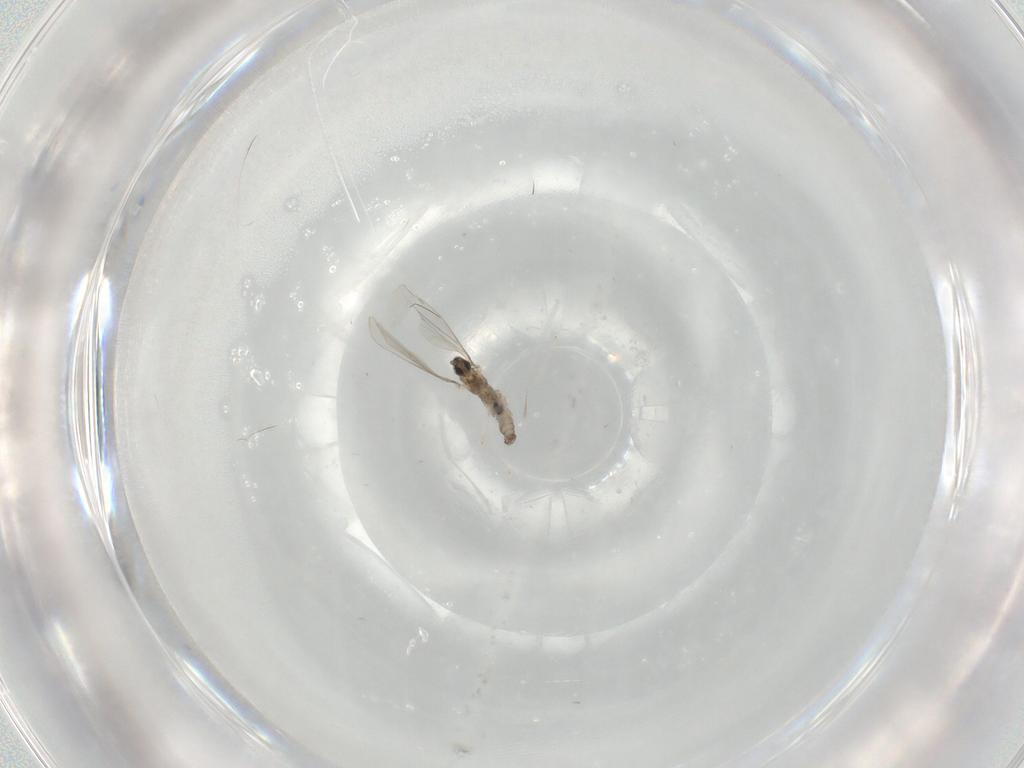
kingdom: Animalia
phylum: Arthropoda
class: Insecta
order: Diptera
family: Cecidomyiidae
